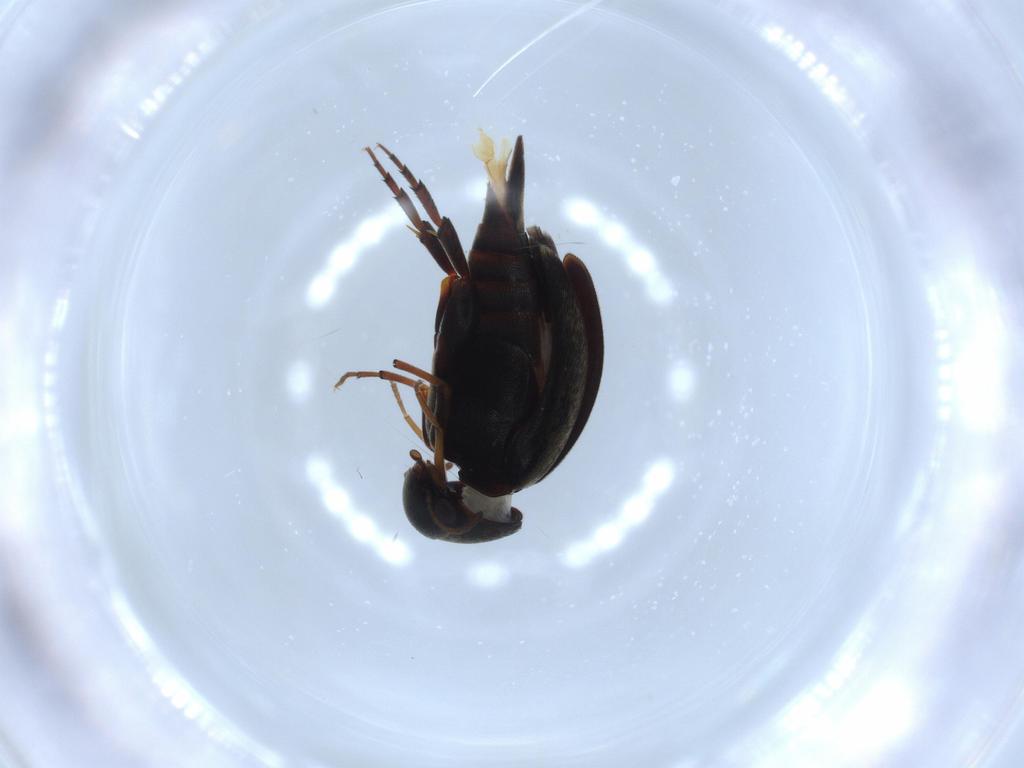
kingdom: Animalia
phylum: Arthropoda
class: Insecta
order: Coleoptera
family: Mordellidae
